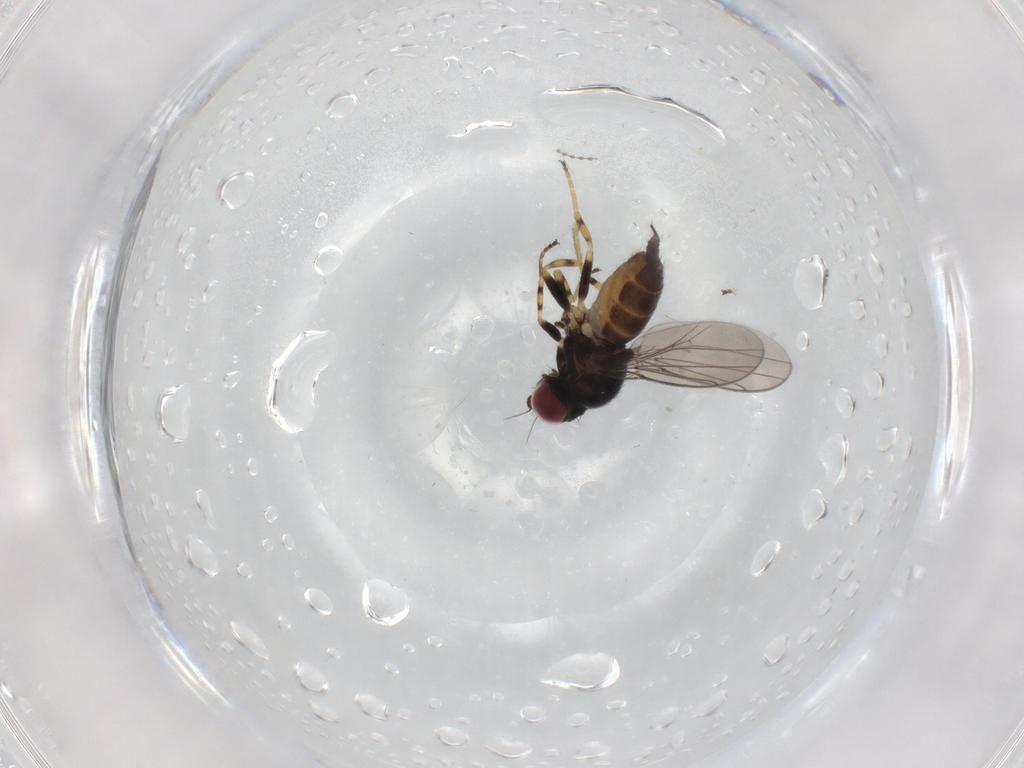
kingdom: Animalia
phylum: Arthropoda
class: Insecta
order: Diptera
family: Chloropidae
